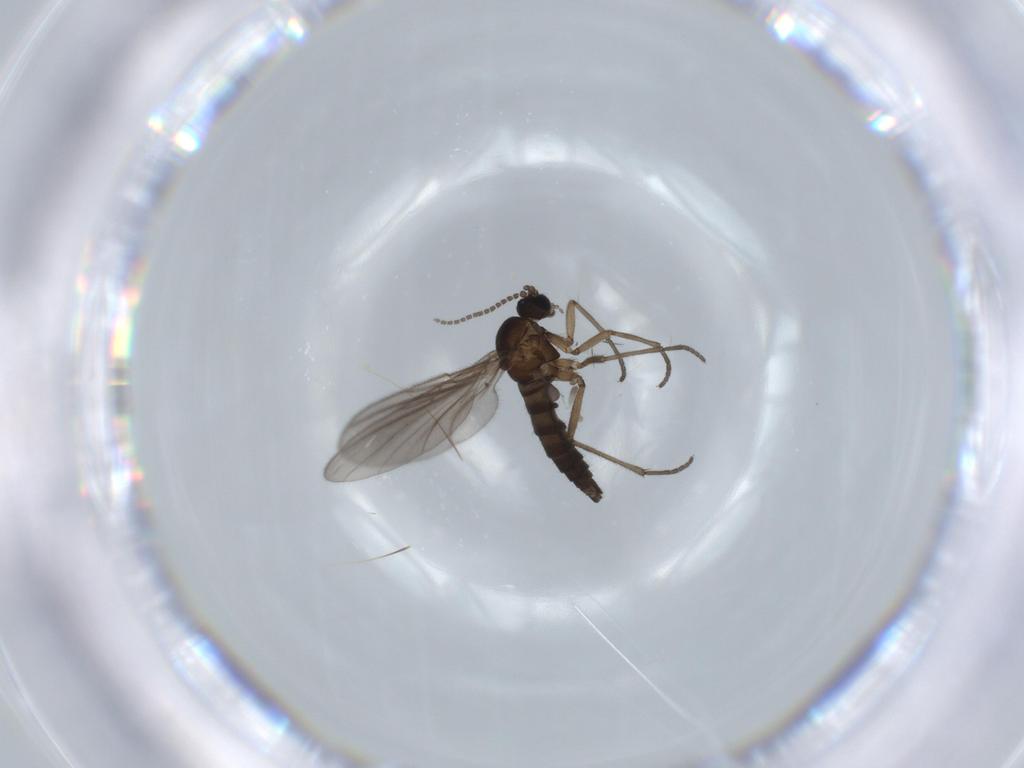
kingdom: Animalia
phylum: Arthropoda
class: Insecta
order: Diptera
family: Sciaridae
